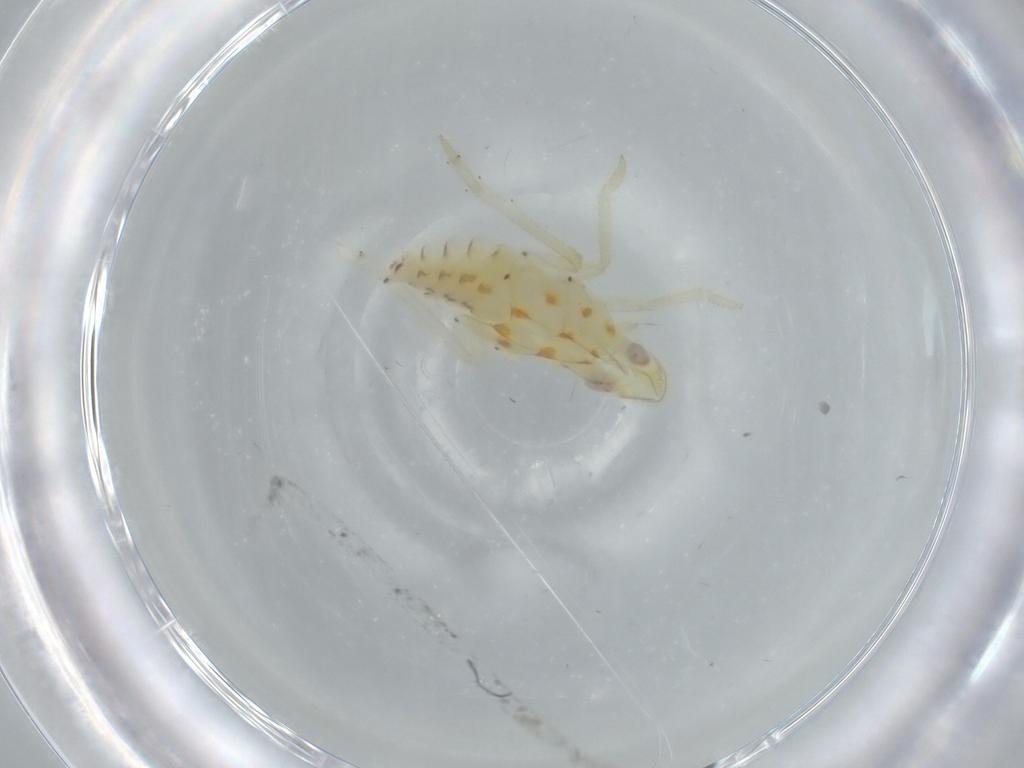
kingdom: Animalia
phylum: Arthropoda
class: Insecta
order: Hemiptera
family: Tropiduchidae
